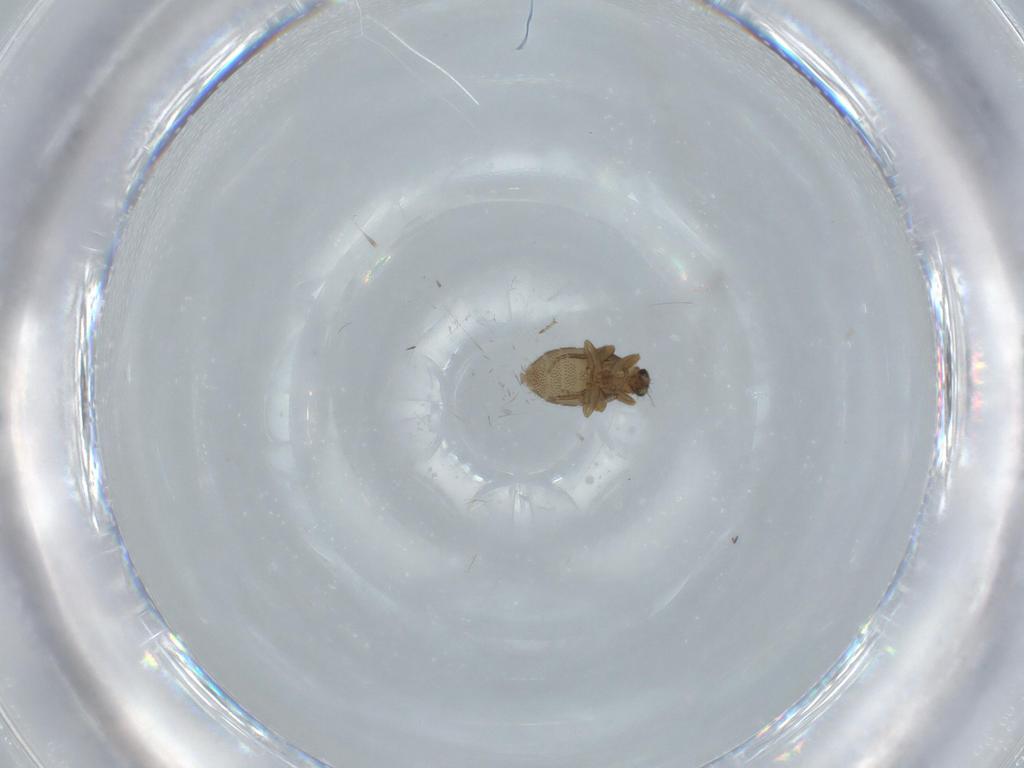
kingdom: Animalia
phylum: Arthropoda
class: Insecta
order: Diptera
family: Phoridae
